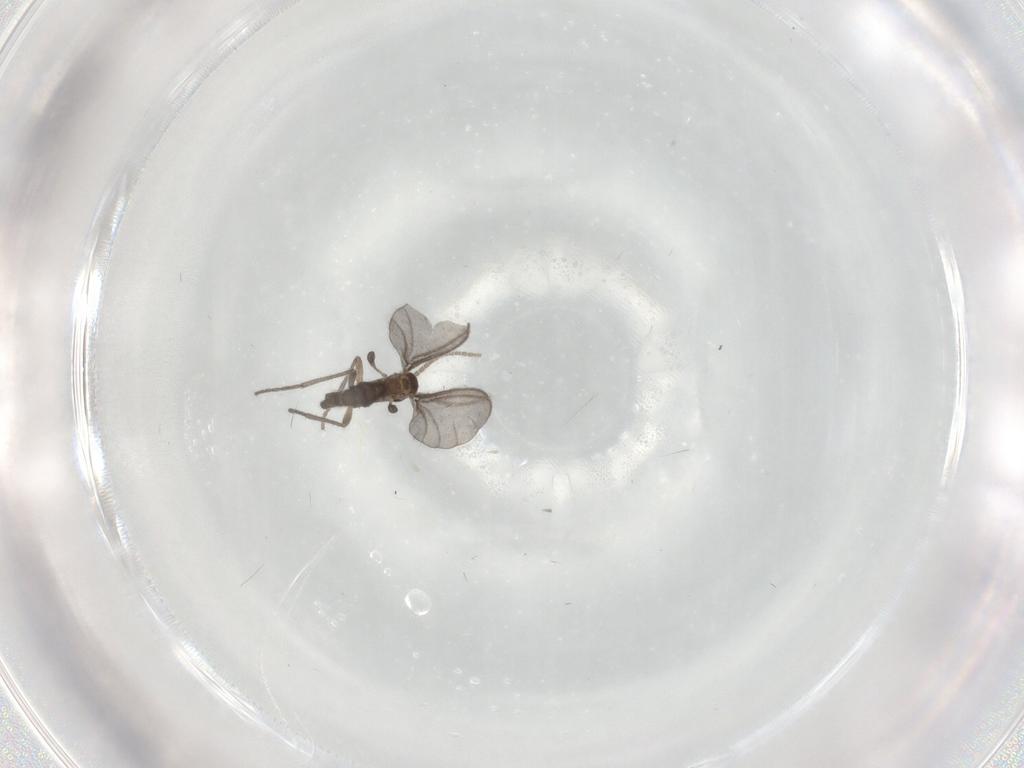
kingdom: Animalia
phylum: Arthropoda
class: Insecta
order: Diptera
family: Sciaridae
